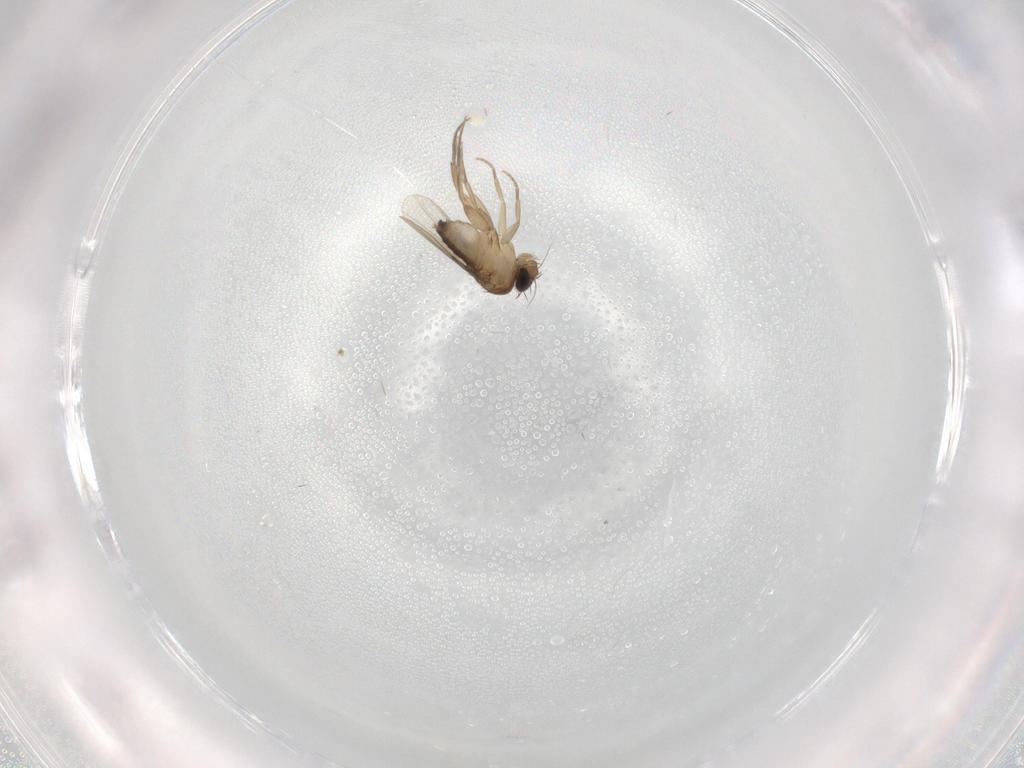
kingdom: Animalia
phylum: Arthropoda
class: Insecta
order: Diptera
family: Phoridae
